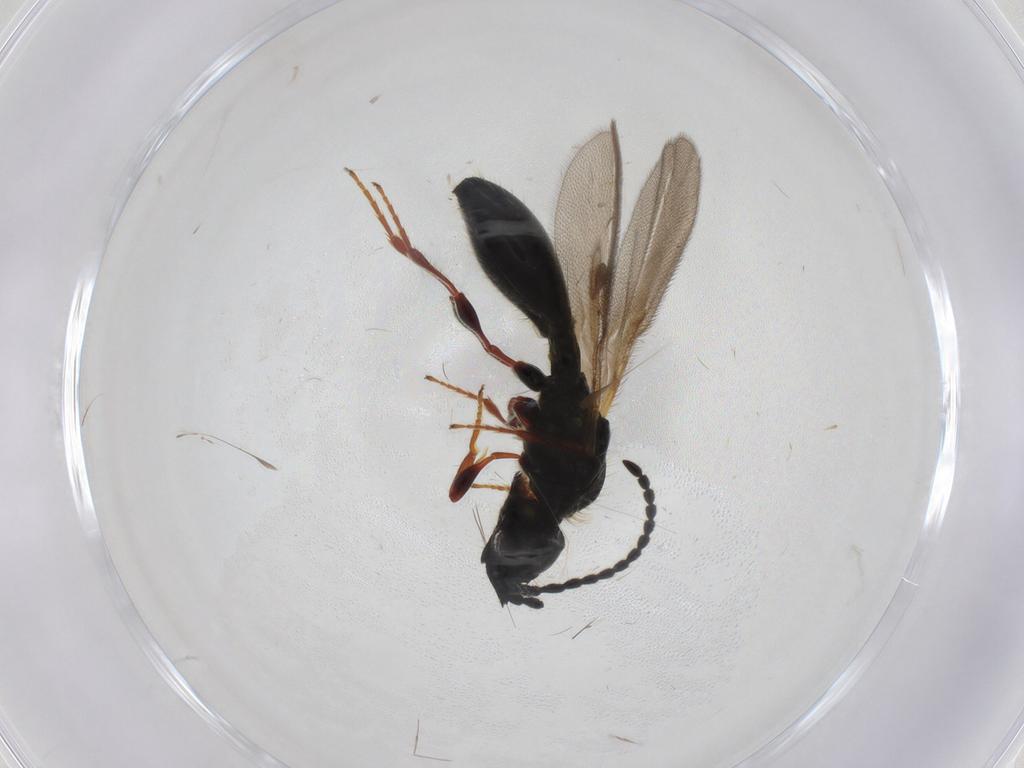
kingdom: Animalia
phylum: Arthropoda
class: Insecta
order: Hymenoptera
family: Diapriidae
